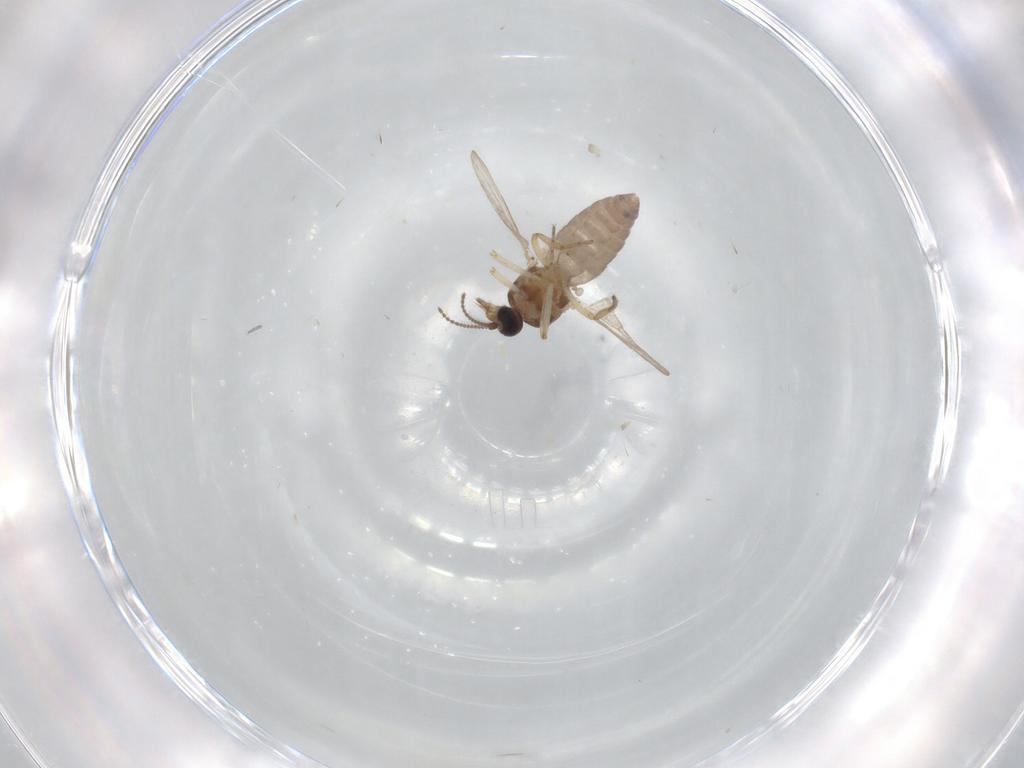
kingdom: Animalia
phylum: Arthropoda
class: Insecta
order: Diptera
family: Ceratopogonidae
